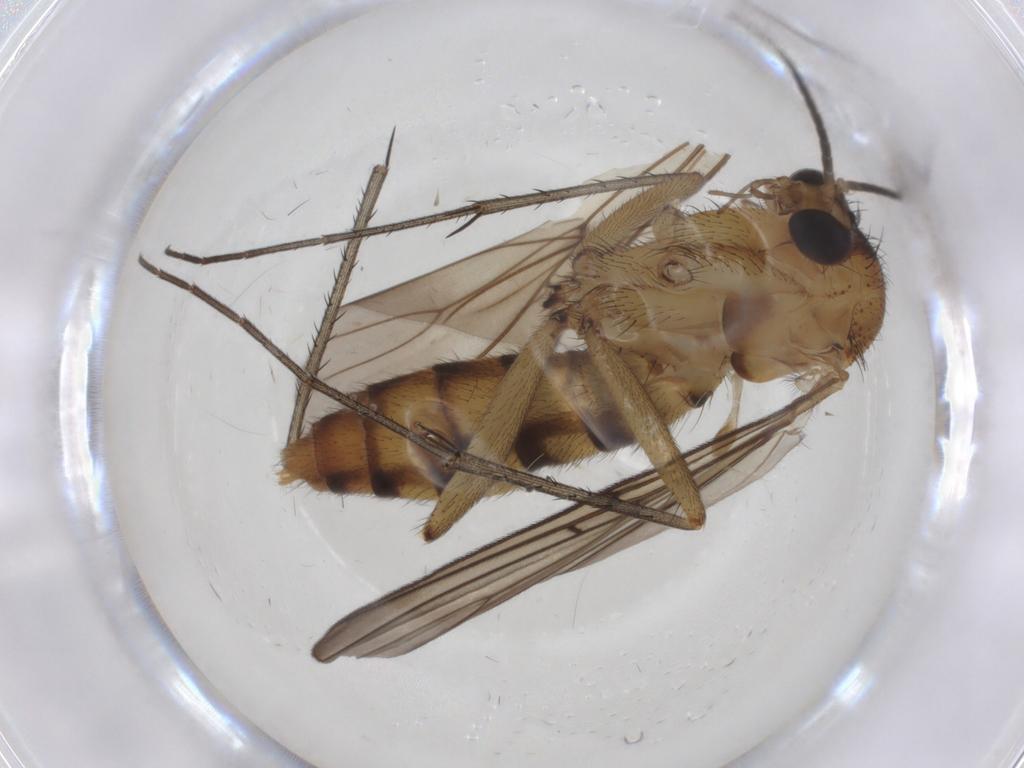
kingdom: Animalia
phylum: Arthropoda
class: Insecta
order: Diptera
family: Mycetophilidae
